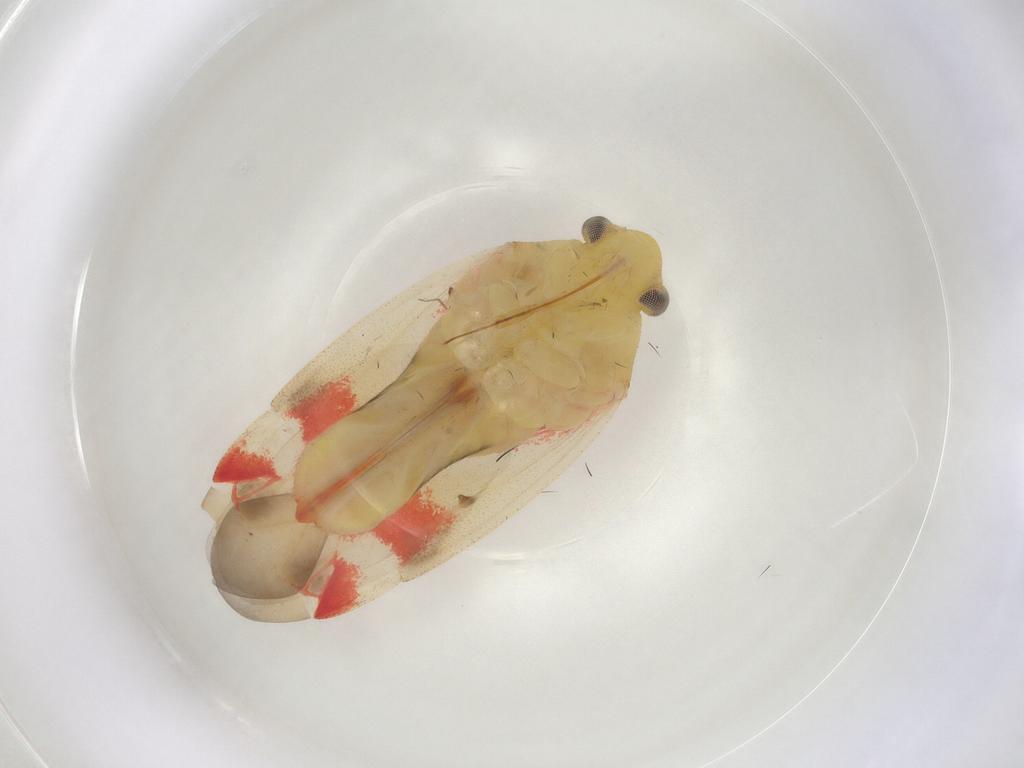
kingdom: Animalia
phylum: Arthropoda
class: Insecta
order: Hemiptera
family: Miridae
